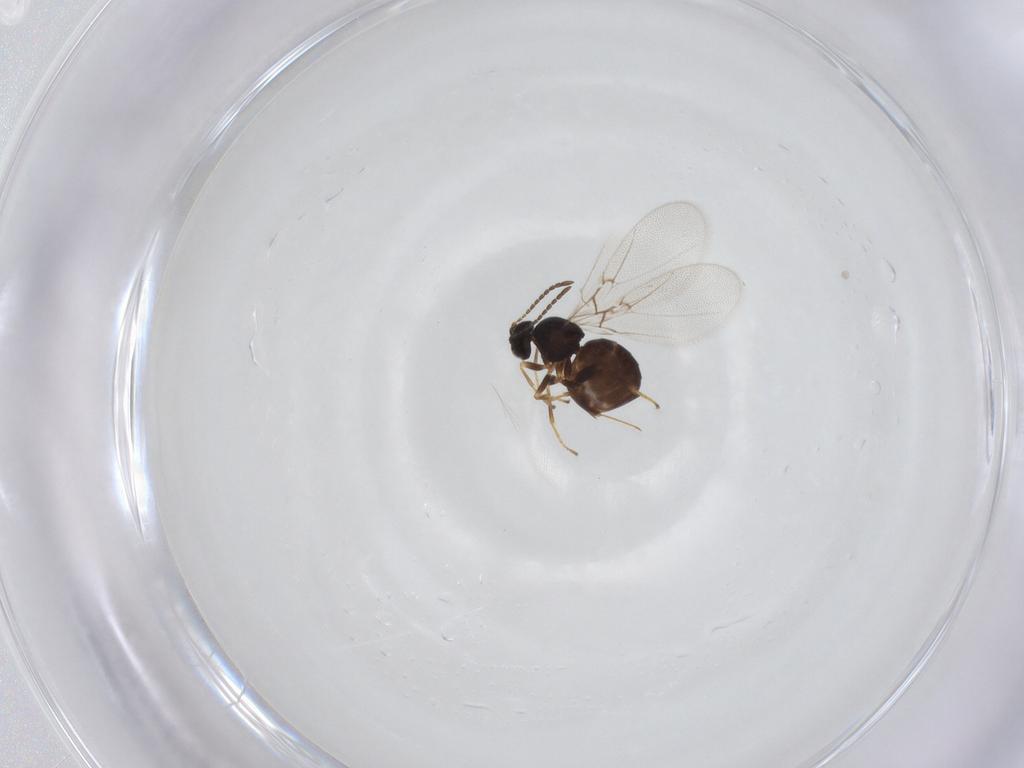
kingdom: Animalia
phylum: Arthropoda
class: Insecta
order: Hymenoptera
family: Cynipidae
